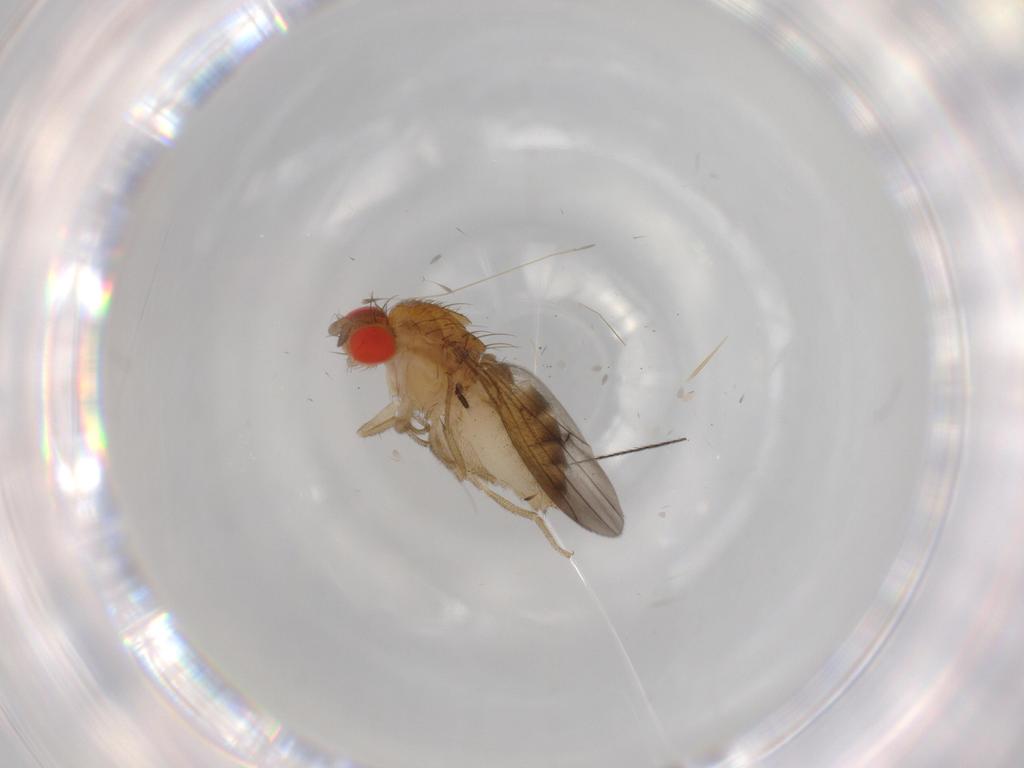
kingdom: Animalia
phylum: Arthropoda
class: Insecta
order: Diptera
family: Drosophilidae
